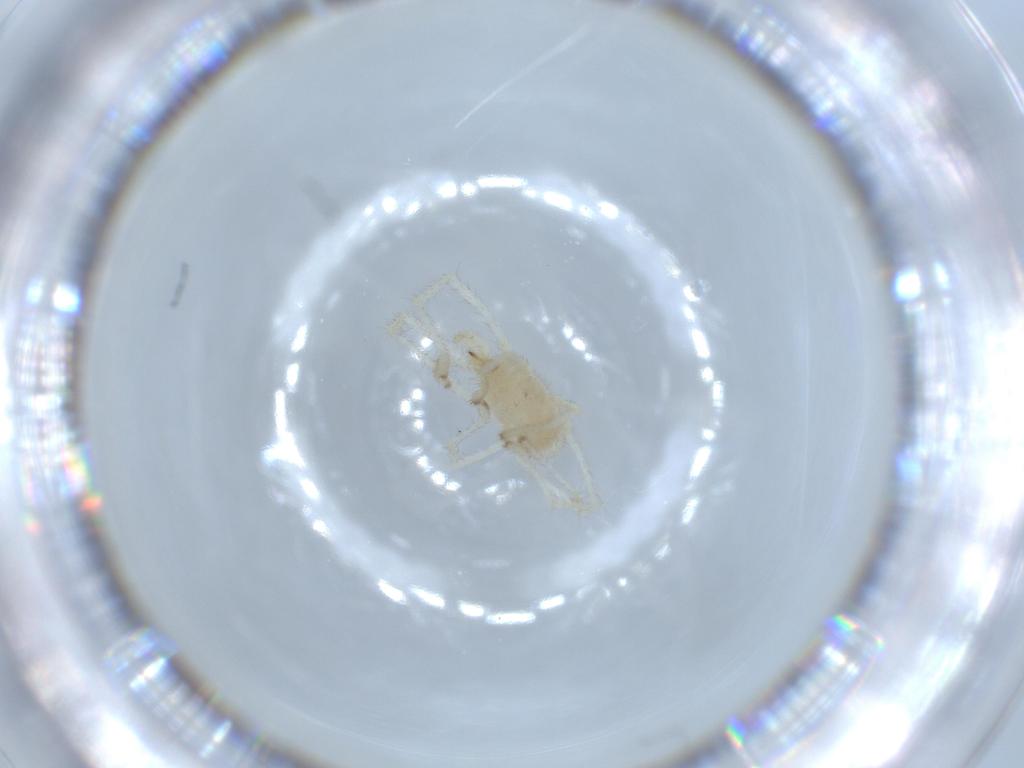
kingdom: Animalia
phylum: Arthropoda
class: Arachnida
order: Trombidiformes
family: Erythraeidae
